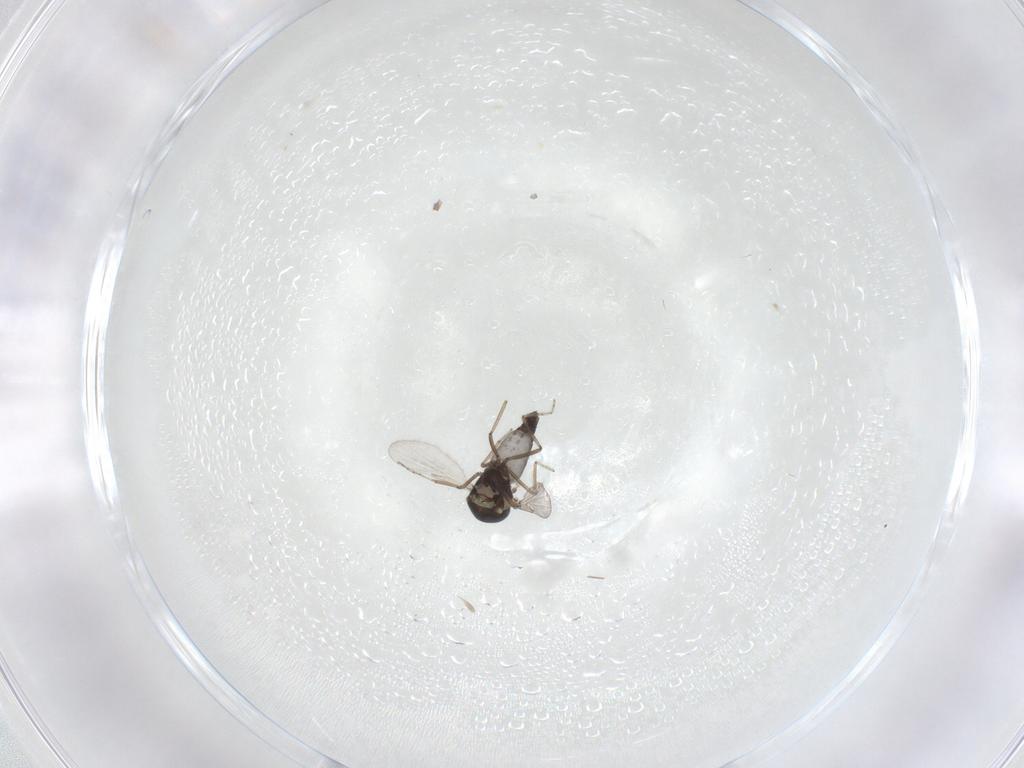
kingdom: Animalia
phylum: Arthropoda
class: Insecta
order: Diptera
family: Ceratopogonidae
